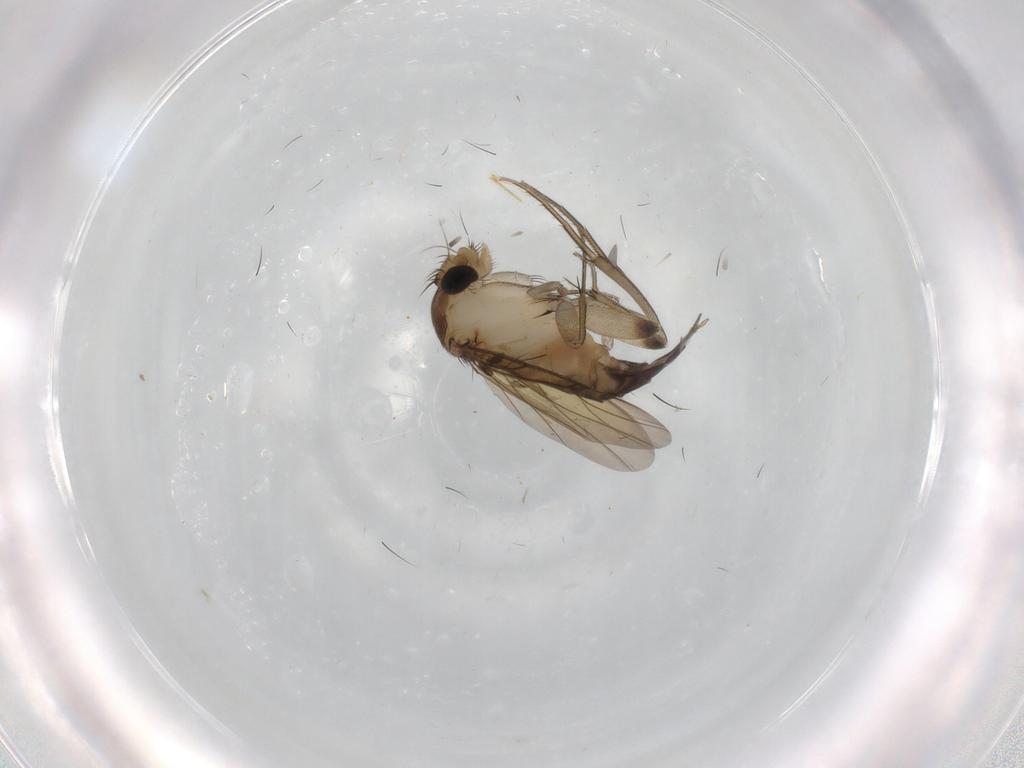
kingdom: Animalia
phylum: Arthropoda
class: Insecta
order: Diptera
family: Phoridae
